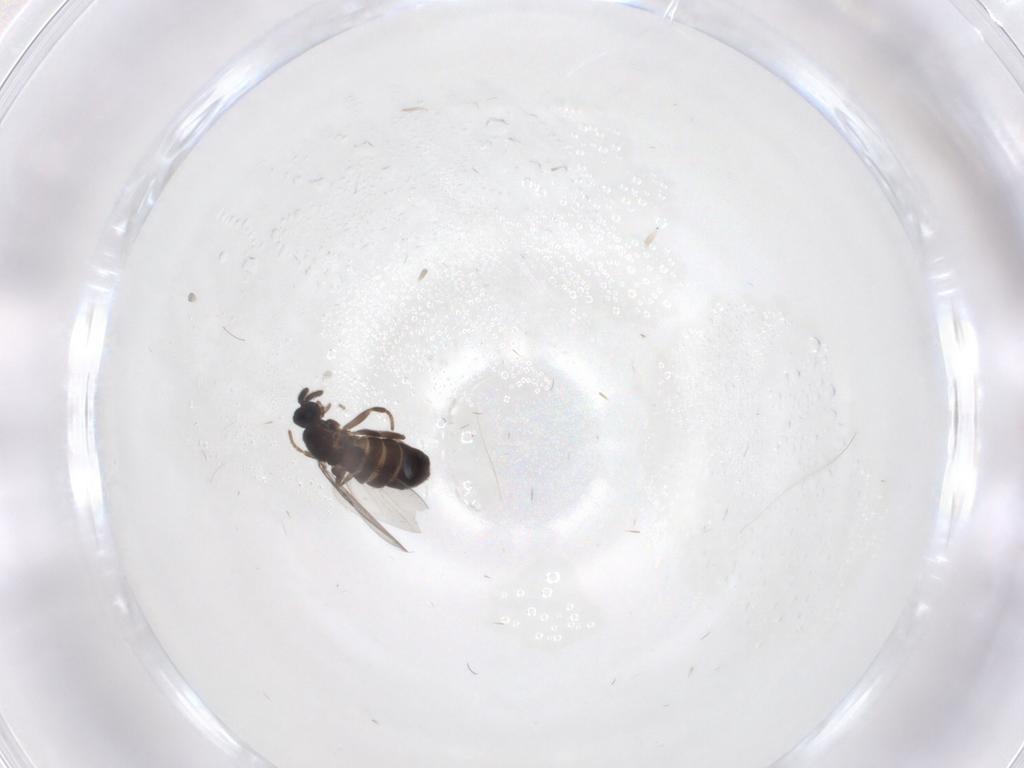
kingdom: Animalia
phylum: Arthropoda
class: Insecta
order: Diptera
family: Scatopsidae
